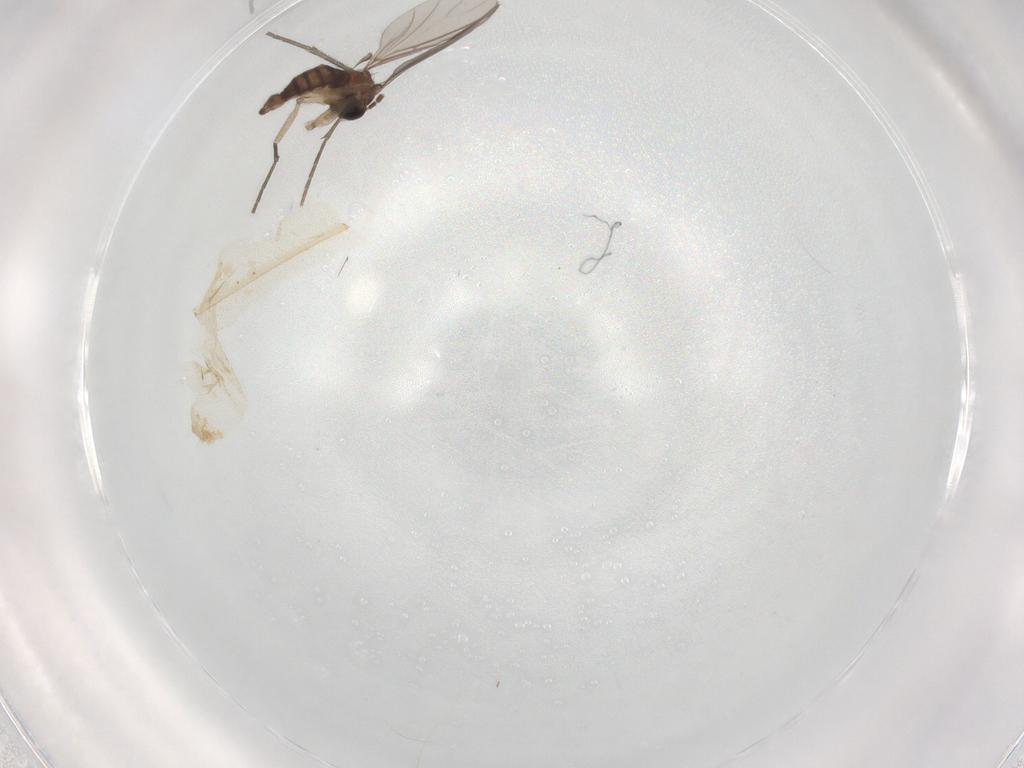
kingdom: Animalia
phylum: Arthropoda
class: Insecta
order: Diptera
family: Sciaridae
